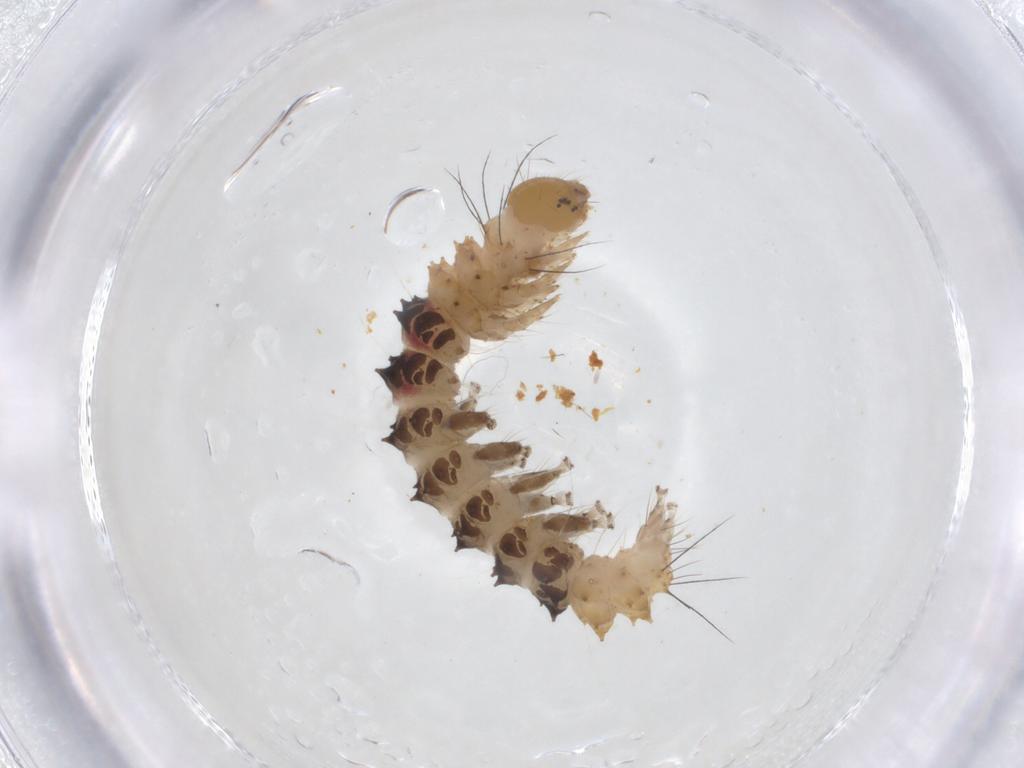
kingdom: Animalia
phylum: Arthropoda
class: Insecta
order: Lepidoptera
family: Erebidae
